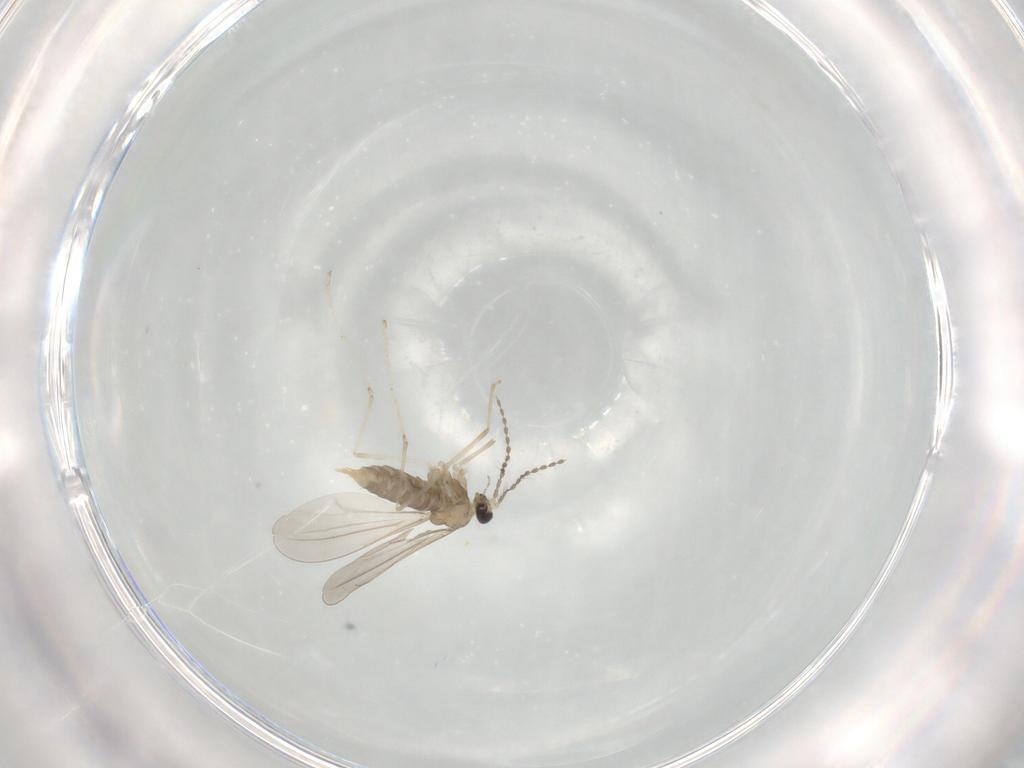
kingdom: Animalia
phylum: Arthropoda
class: Insecta
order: Diptera
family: Cecidomyiidae
